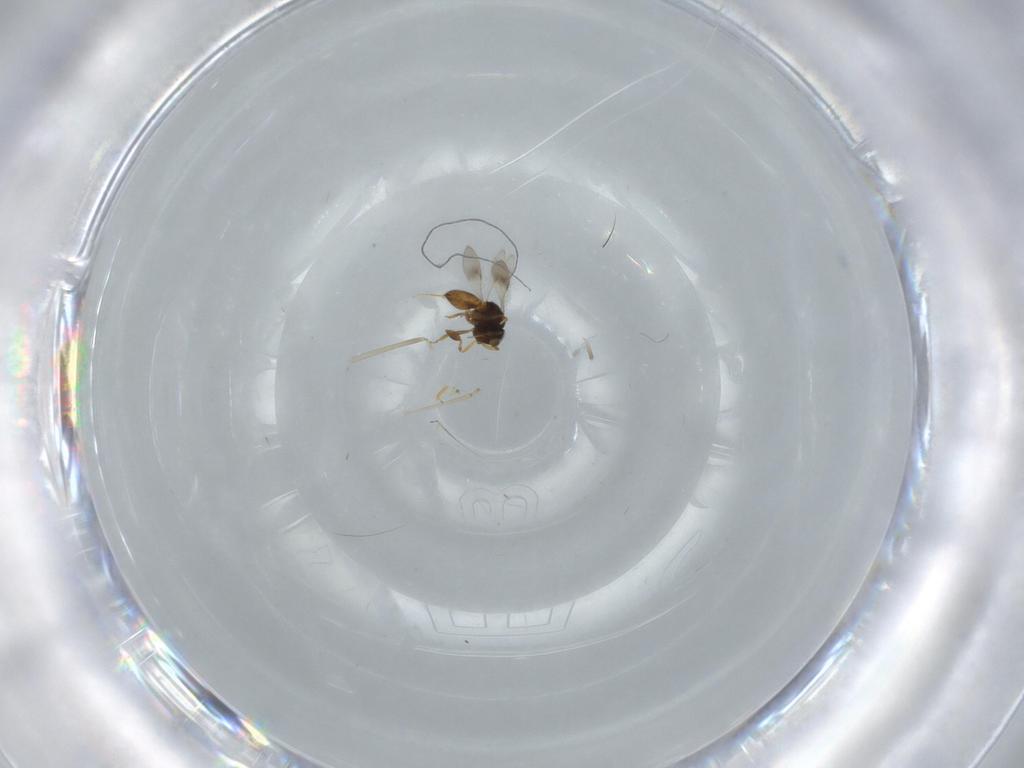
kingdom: Animalia
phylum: Arthropoda
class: Insecta
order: Hymenoptera
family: Scelionidae
